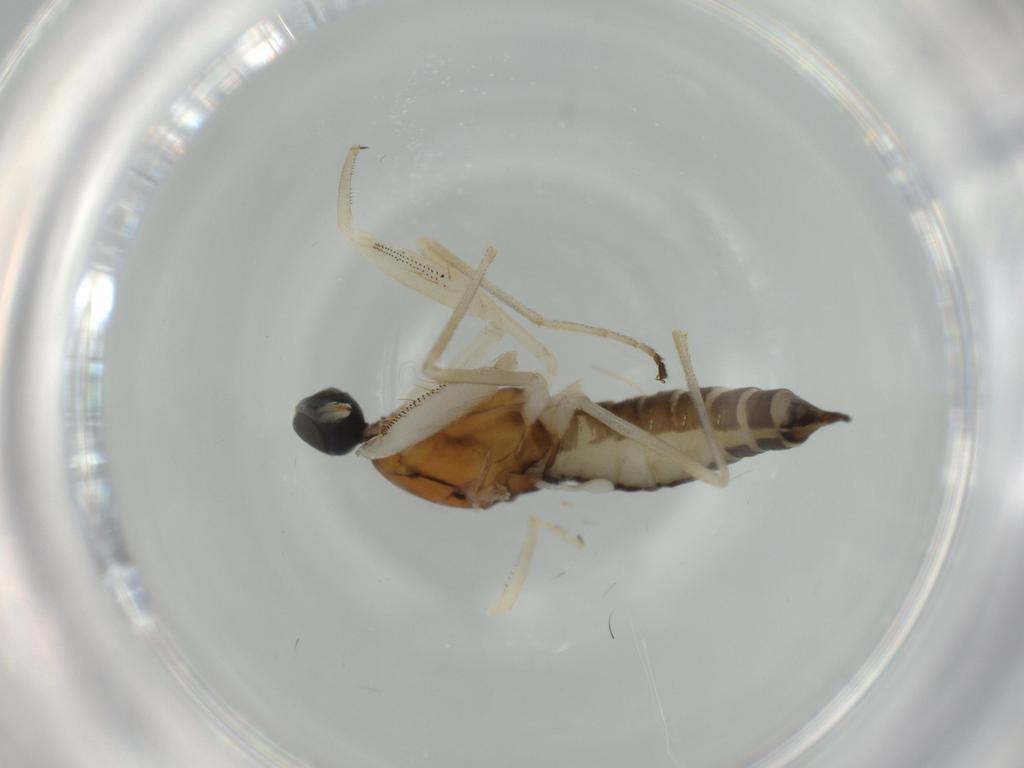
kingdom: Animalia
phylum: Arthropoda
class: Insecta
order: Diptera
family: Empididae
